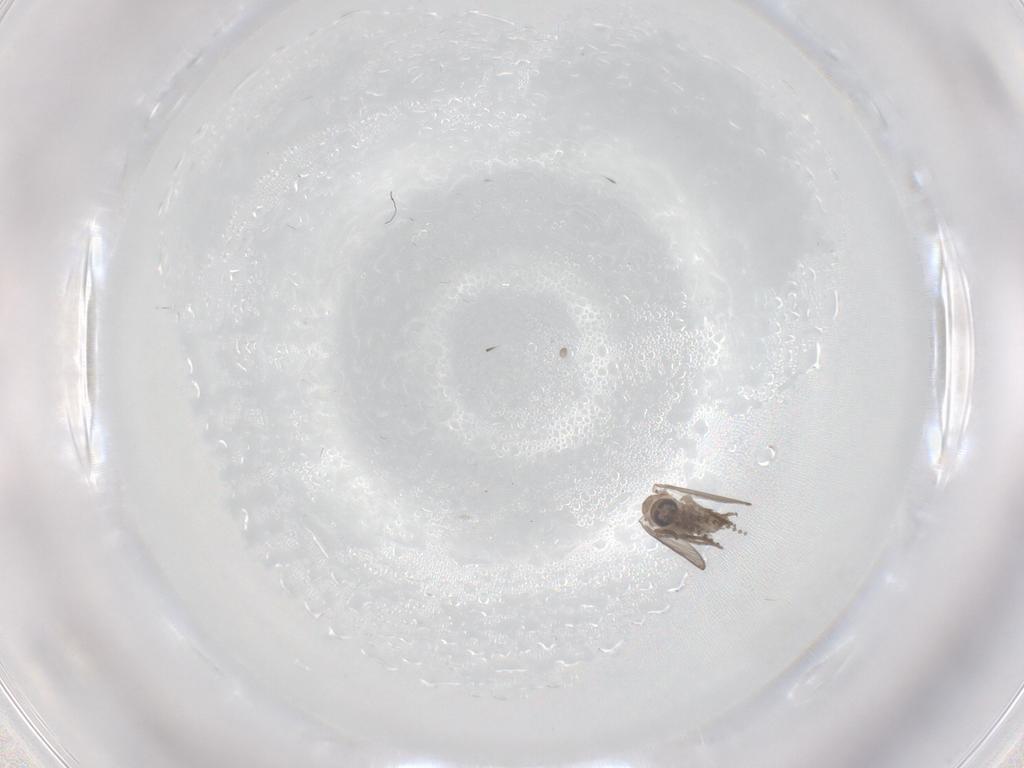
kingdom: Animalia
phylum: Arthropoda
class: Insecta
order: Diptera
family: Psychodidae
